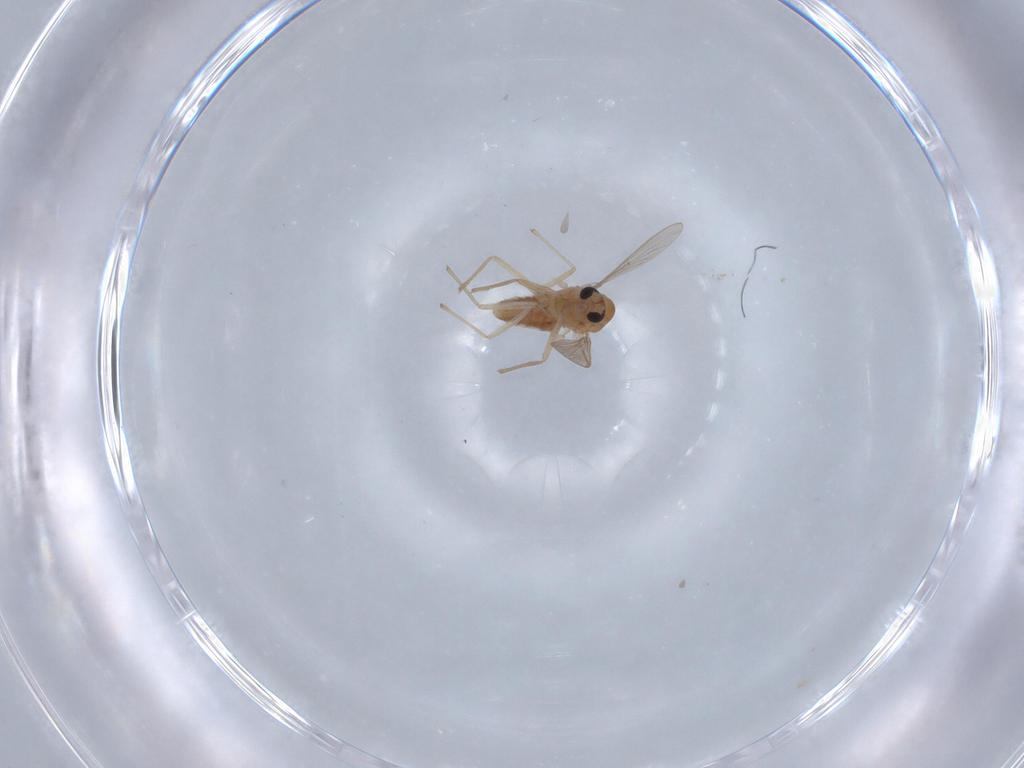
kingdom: Animalia
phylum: Arthropoda
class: Insecta
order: Diptera
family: Chironomidae
